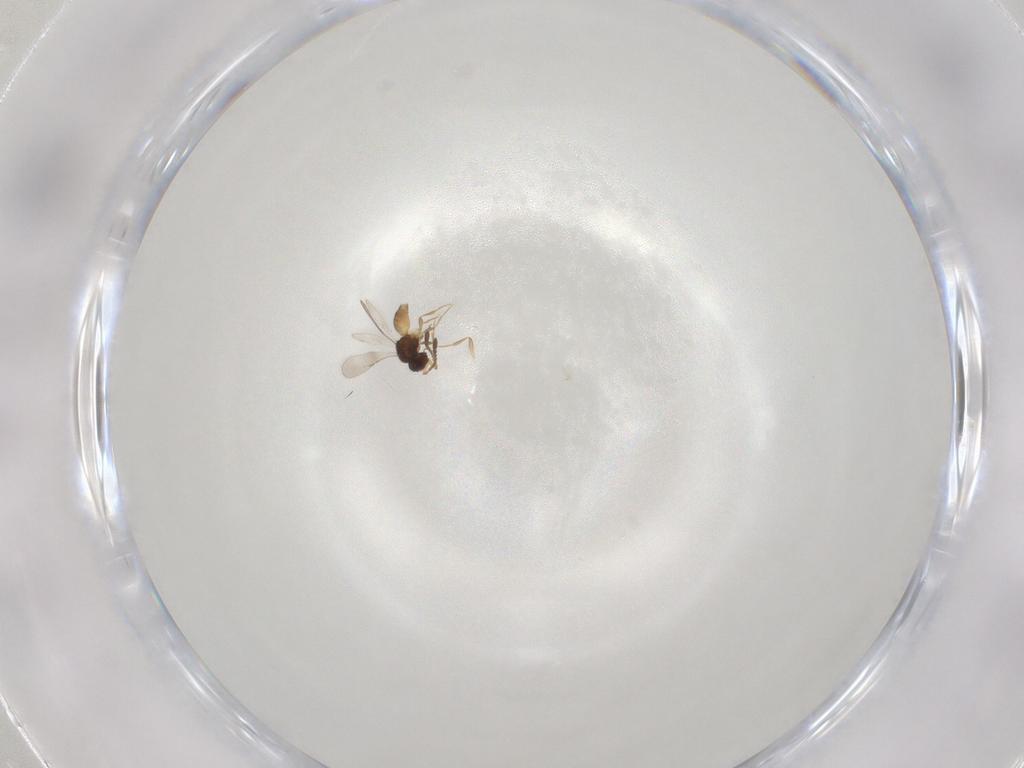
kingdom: Animalia
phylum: Arthropoda
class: Insecta
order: Hymenoptera
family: Ceraphronidae
